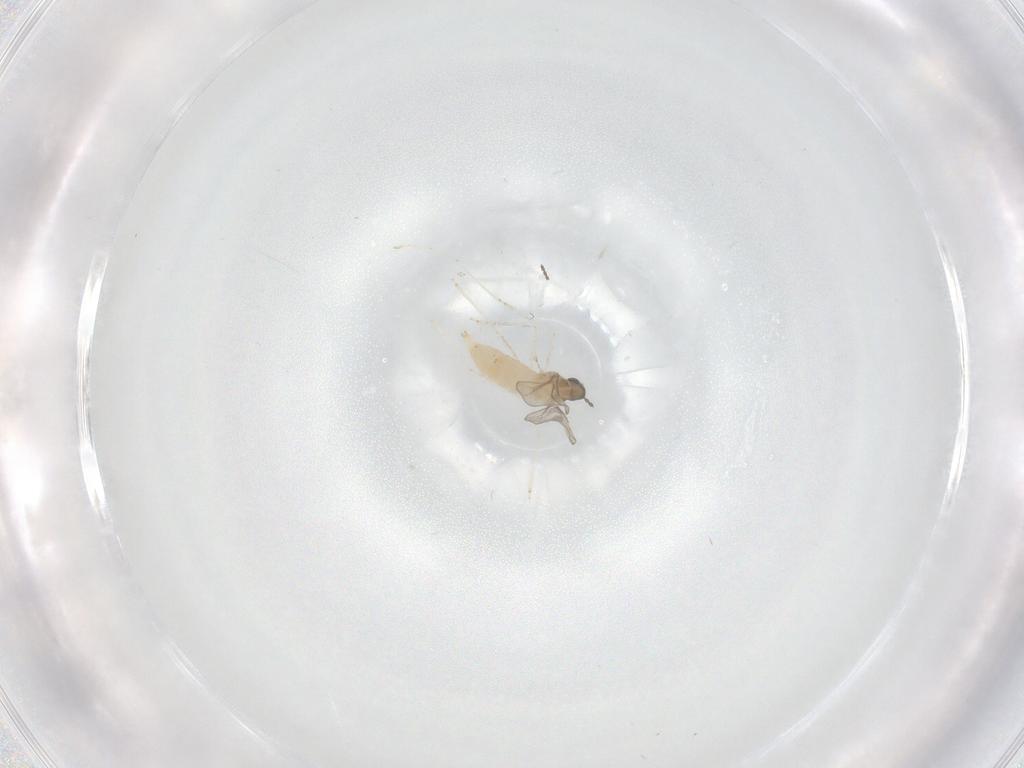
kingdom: Animalia
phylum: Arthropoda
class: Insecta
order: Diptera
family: Cecidomyiidae
